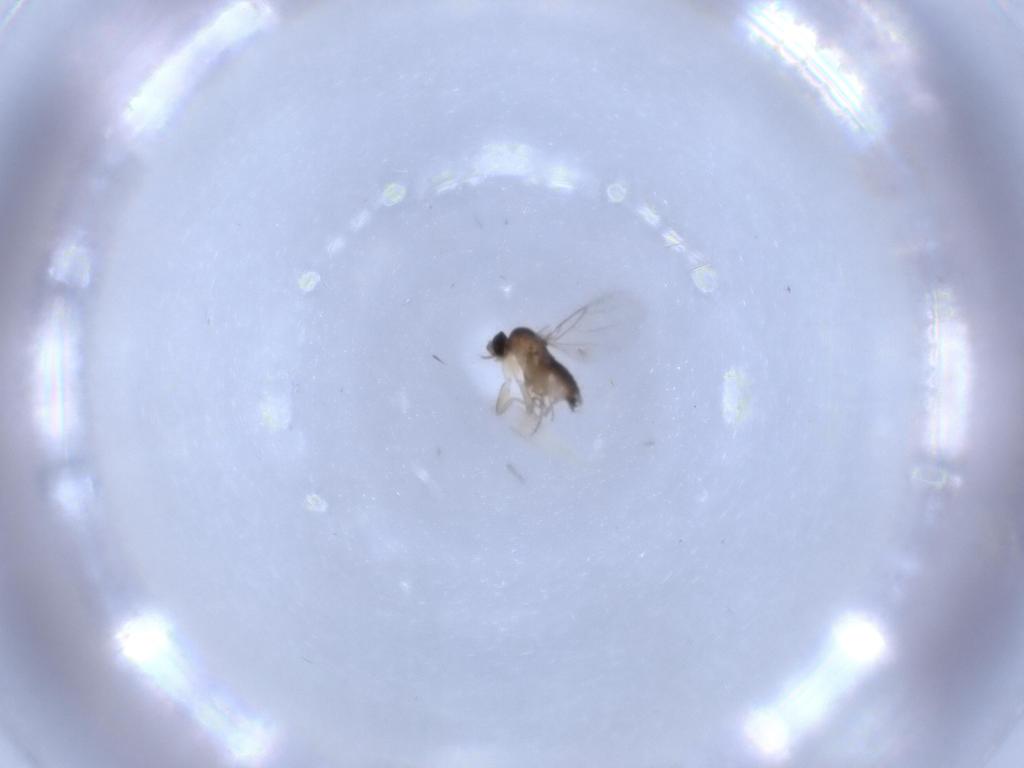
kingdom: Animalia
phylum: Arthropoda
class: Insecta
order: Diptera
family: Phoridae
